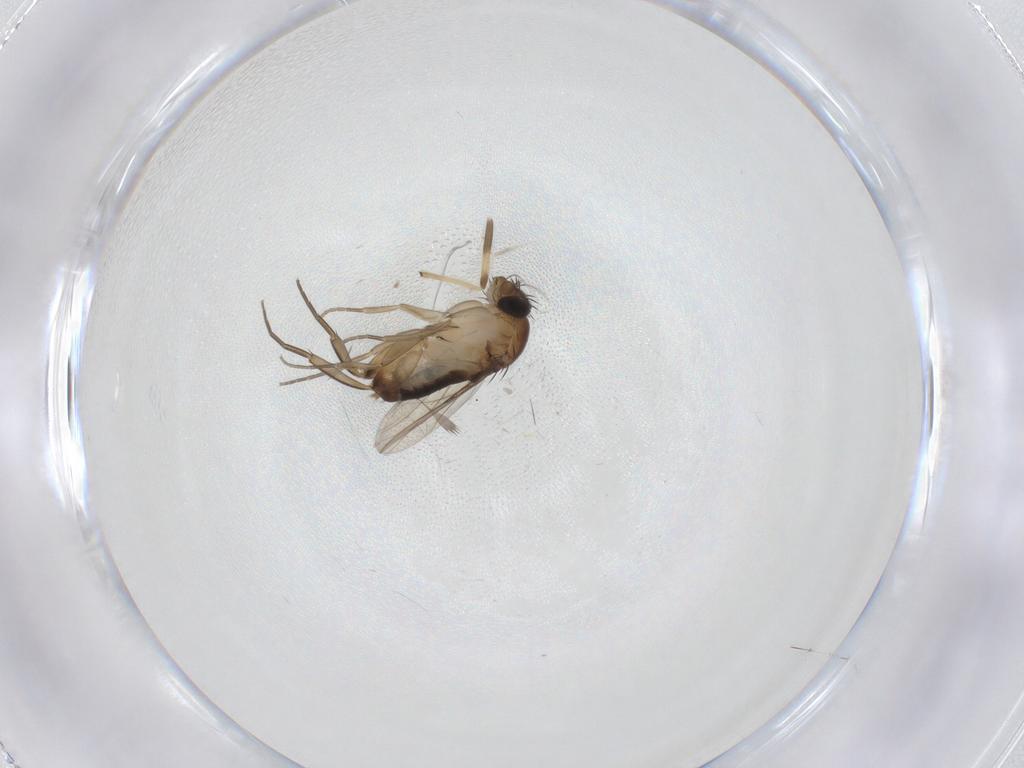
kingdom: Animalia
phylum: Arthropoda
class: Insecta
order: Diptera
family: Phoridae
